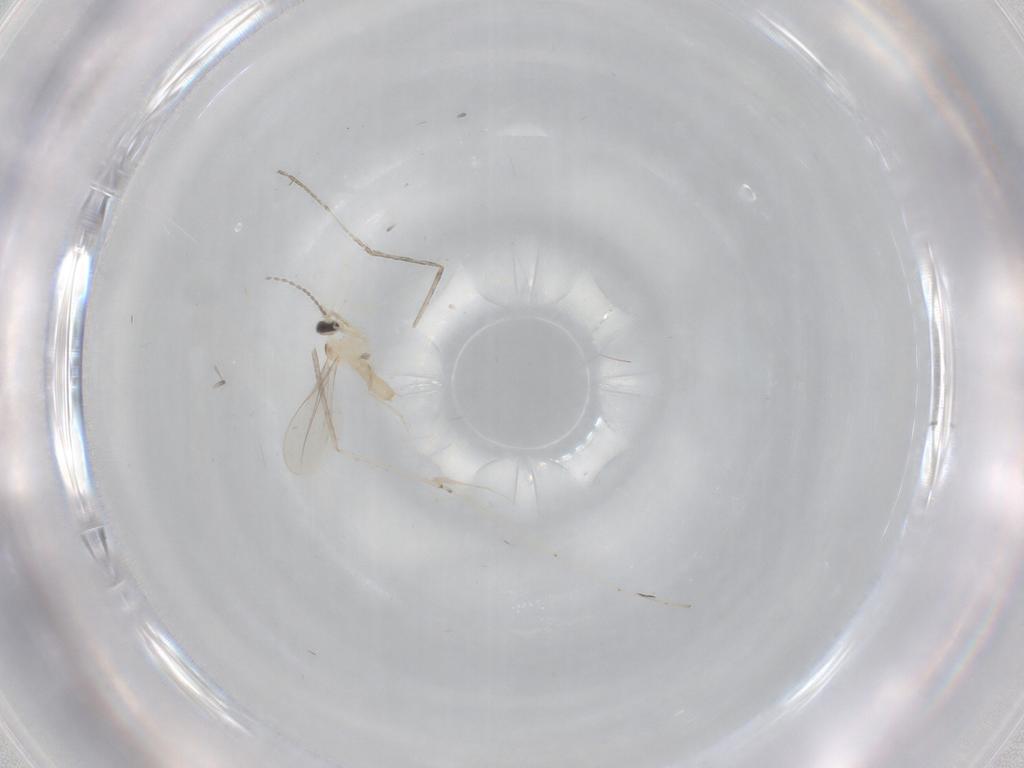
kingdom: Animalia
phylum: Arthropoda
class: Insecta
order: Diptera
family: Cecidomyiidae
